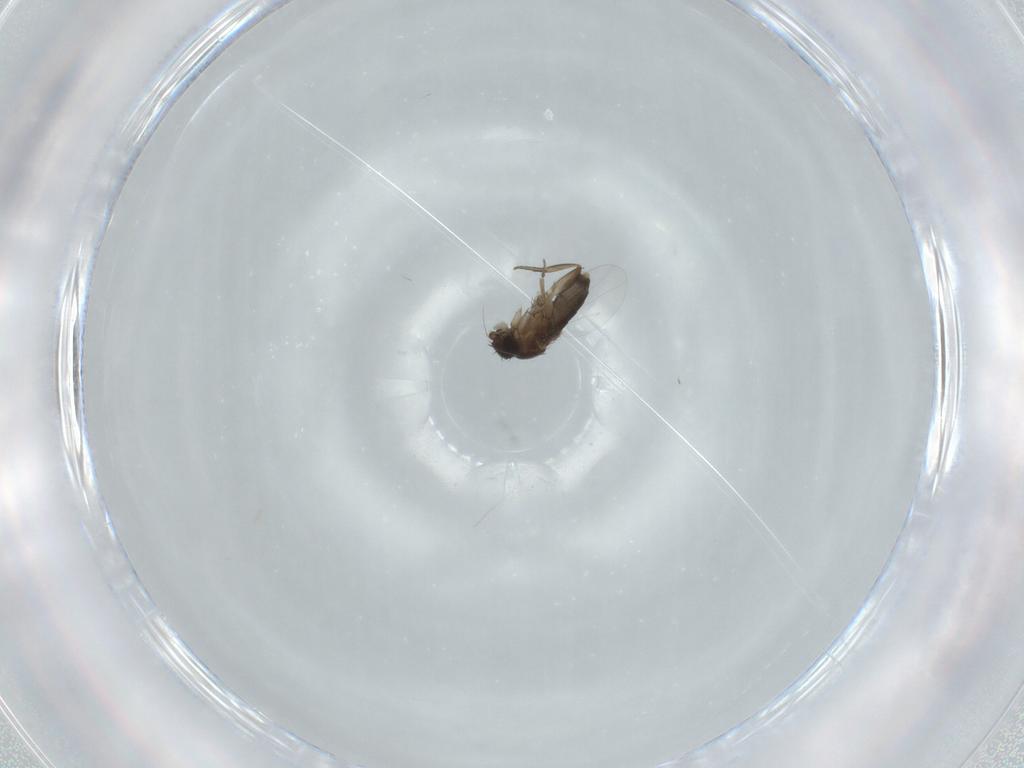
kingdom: Animalia
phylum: Arthropoda
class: Insecta
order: Diptera
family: Phoridae
